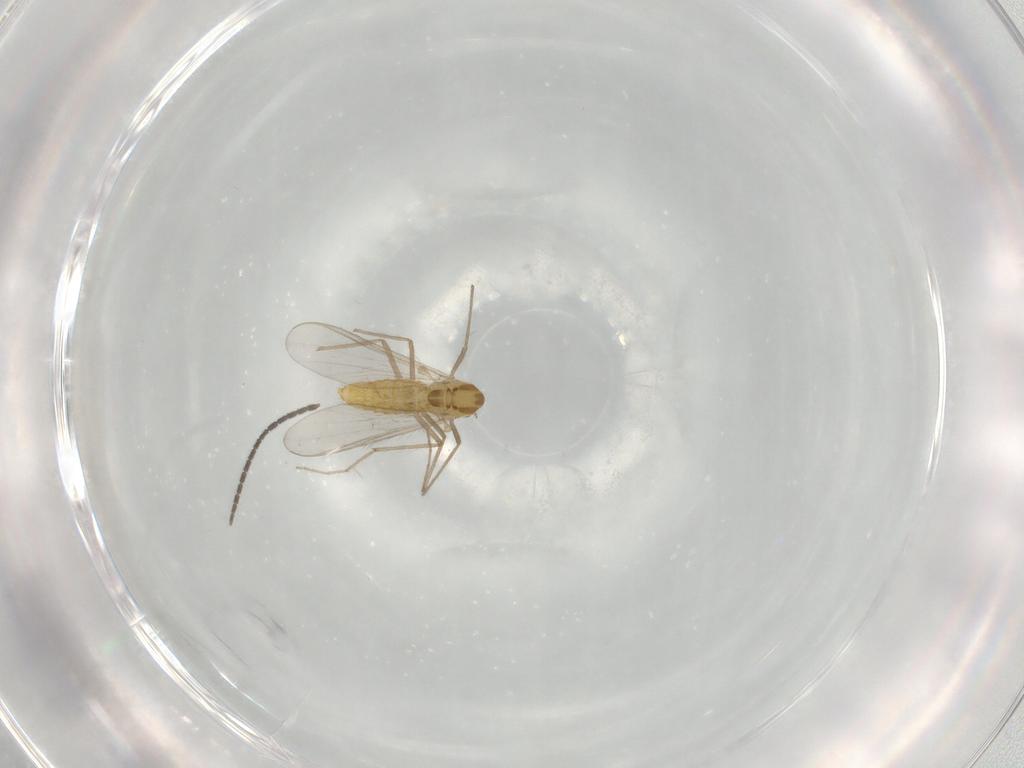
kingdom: Animalia
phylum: Arthropoda
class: Insecta
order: Diptera
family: Chironomidae
